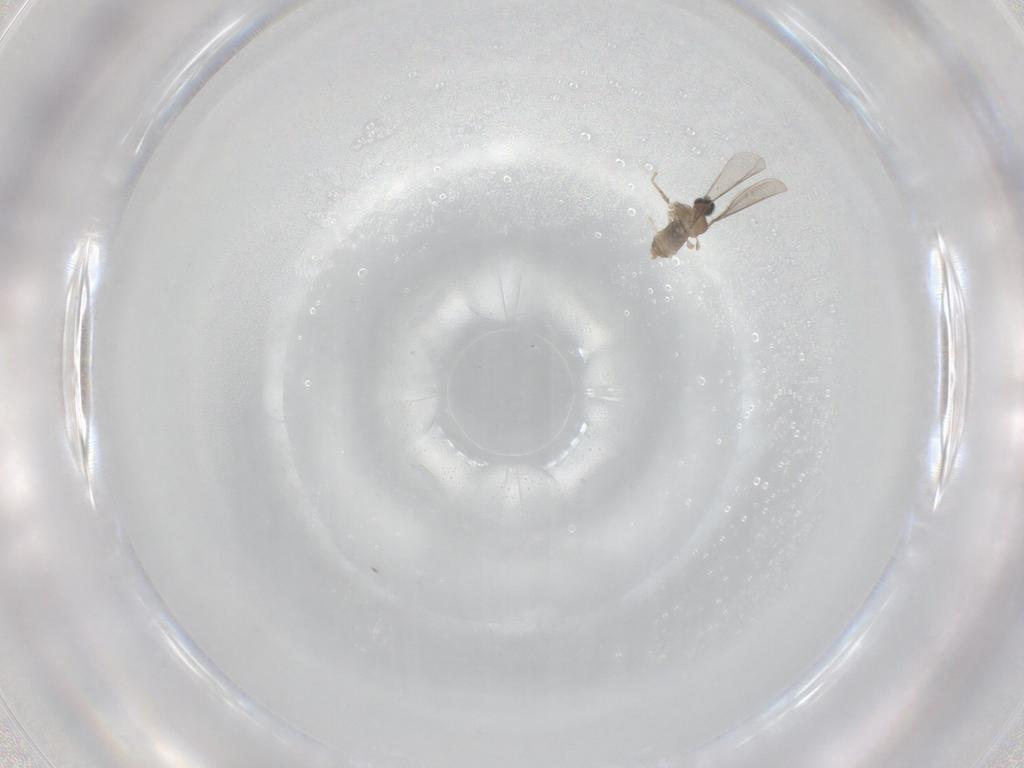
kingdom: Animalia
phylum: Arthropoda
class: Insecta
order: Diptera
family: Cecidomyiidae
